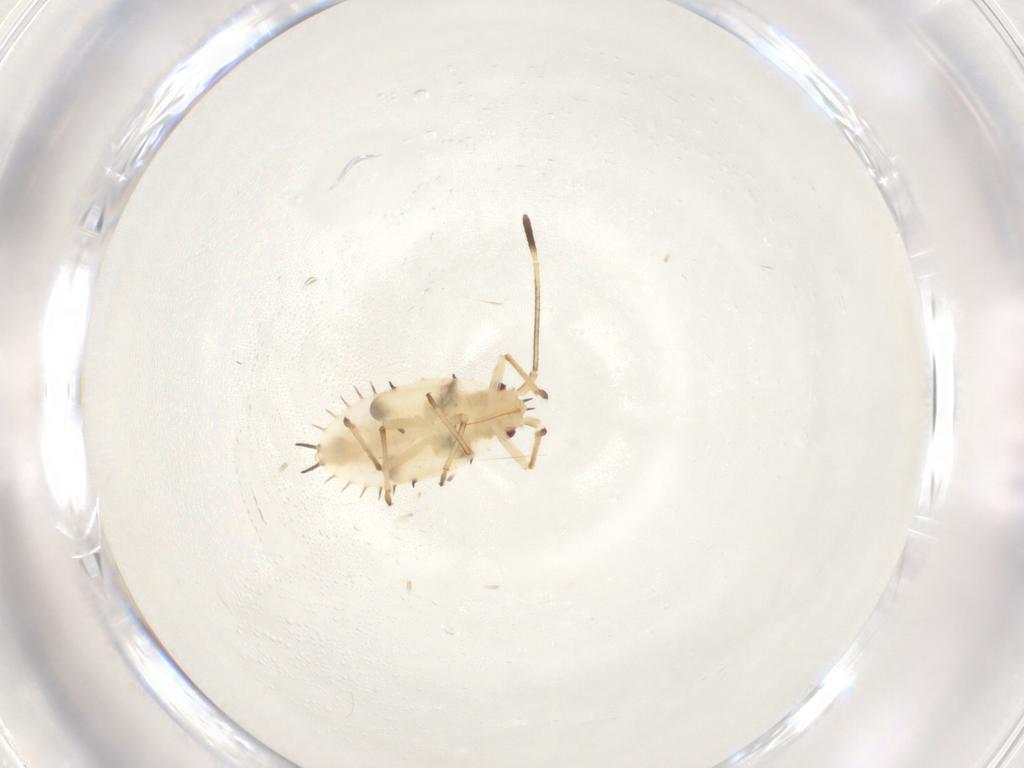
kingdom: Animalia
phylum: Arthropoda
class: Insecta
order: Hemiptera
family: Tingidae
